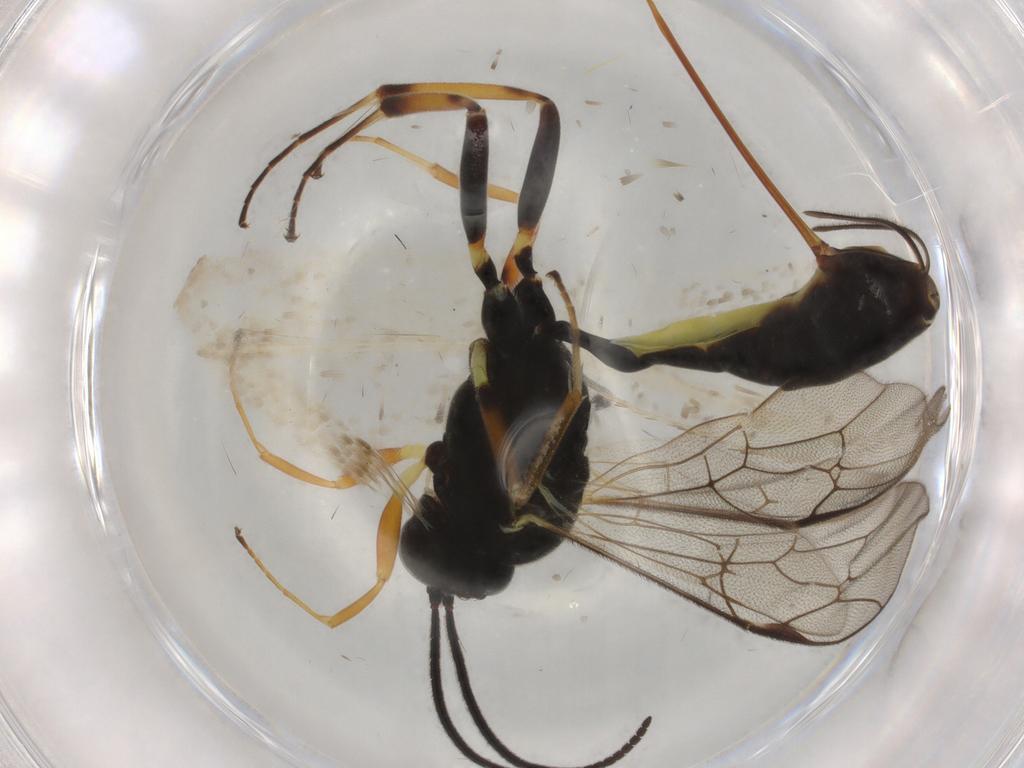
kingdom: Animalia
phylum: Arthropoda
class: Insecta
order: Hymenoptera
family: Ichneumonidae
